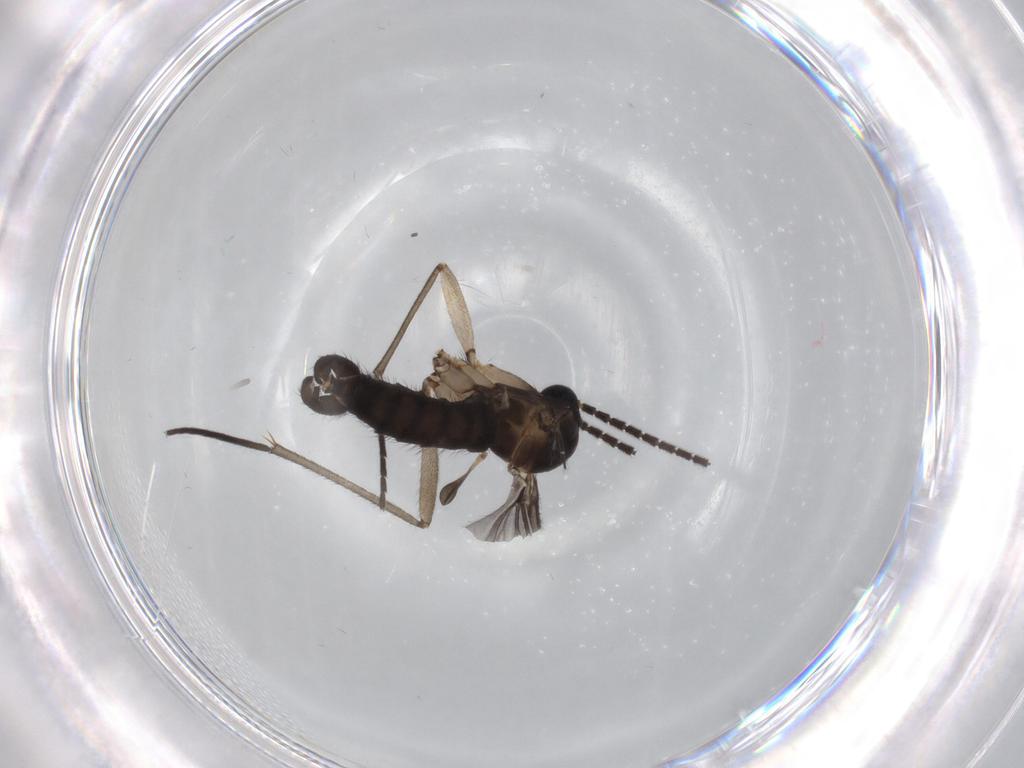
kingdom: Animalia
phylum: Arthropoda
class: Insecta
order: Diptera
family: Sciaridae
